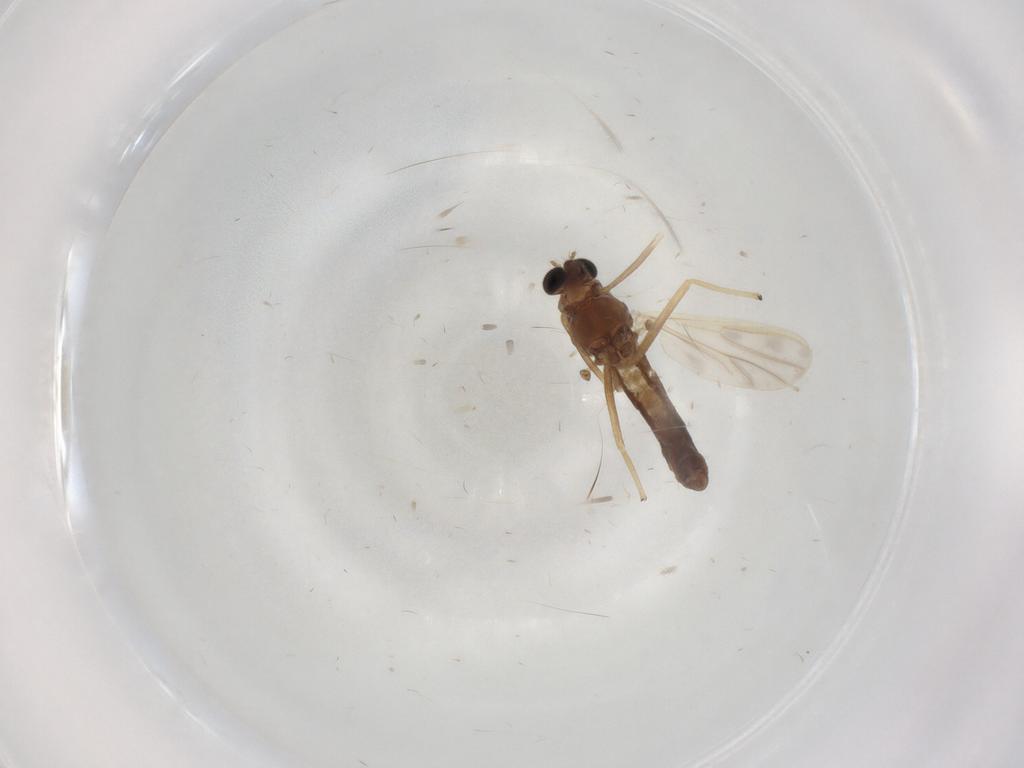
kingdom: Animalia
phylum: Arthropoda
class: Insecta
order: Diptera
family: Chironomidae
